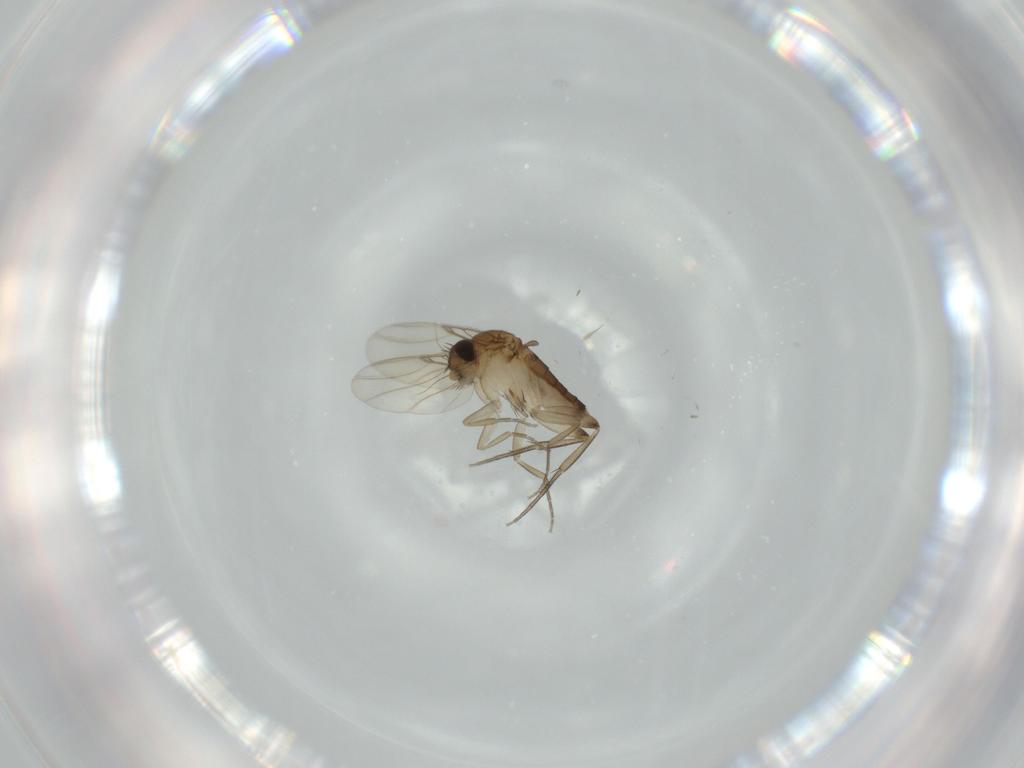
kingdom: Animalia
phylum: Arthropoda
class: Insecta
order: Diptera
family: Phoridae
